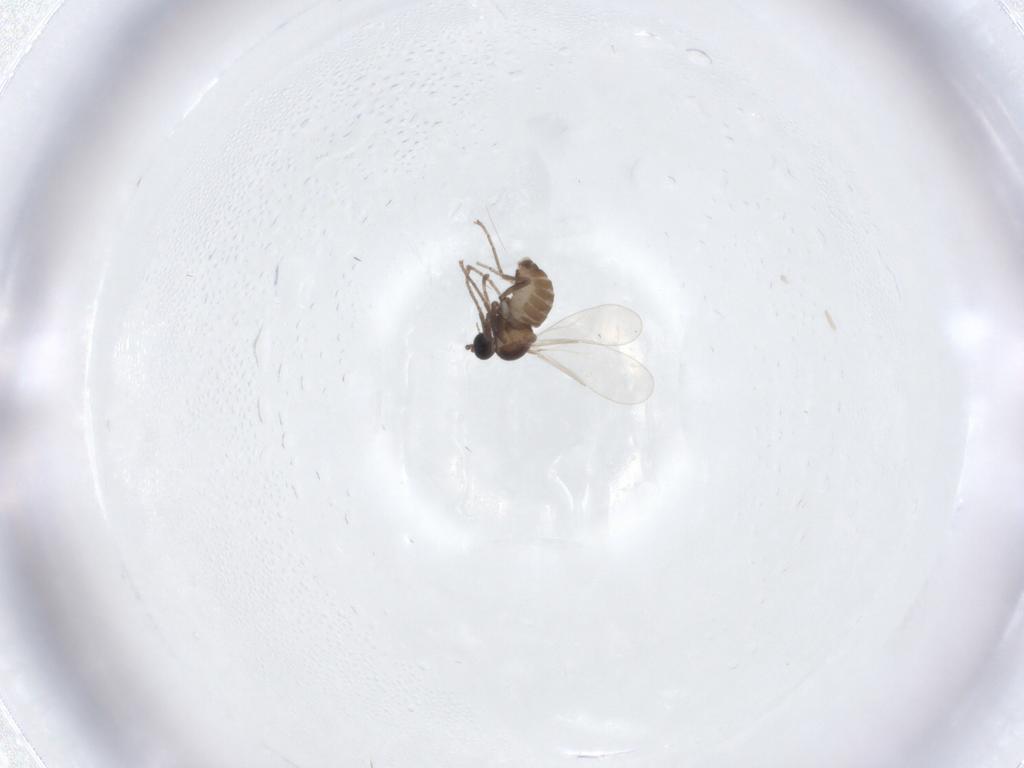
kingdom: Animalia
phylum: Arthropoda
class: Insecta
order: Diptera
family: Cecidomyiidae
